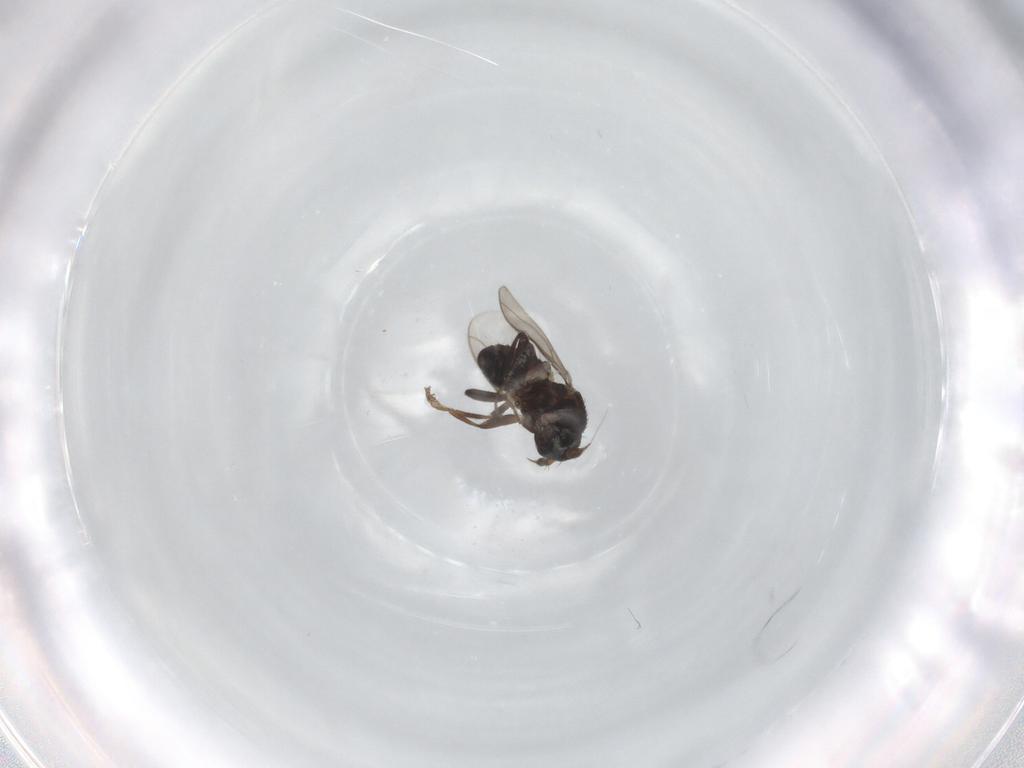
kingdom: Animalia
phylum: Arthropoda
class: Insecta
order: Diptera
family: Sphaeroceridae
